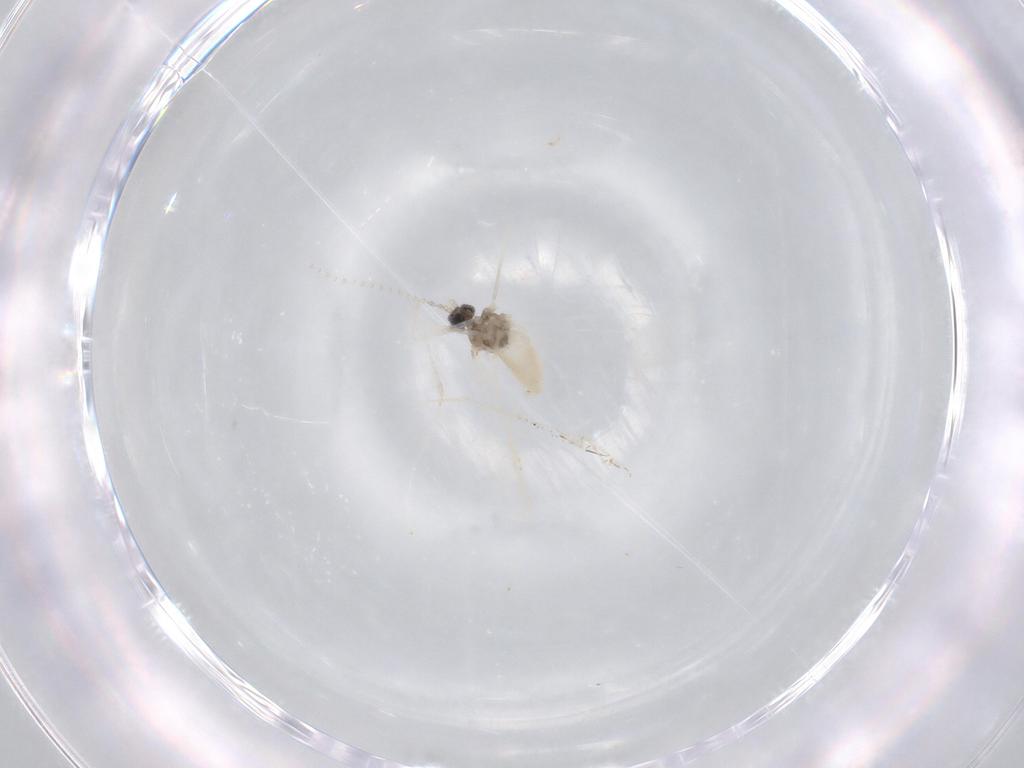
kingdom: Animalia
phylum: Arthropoda
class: Insecta
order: Diptera
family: Cecidomyiidae
